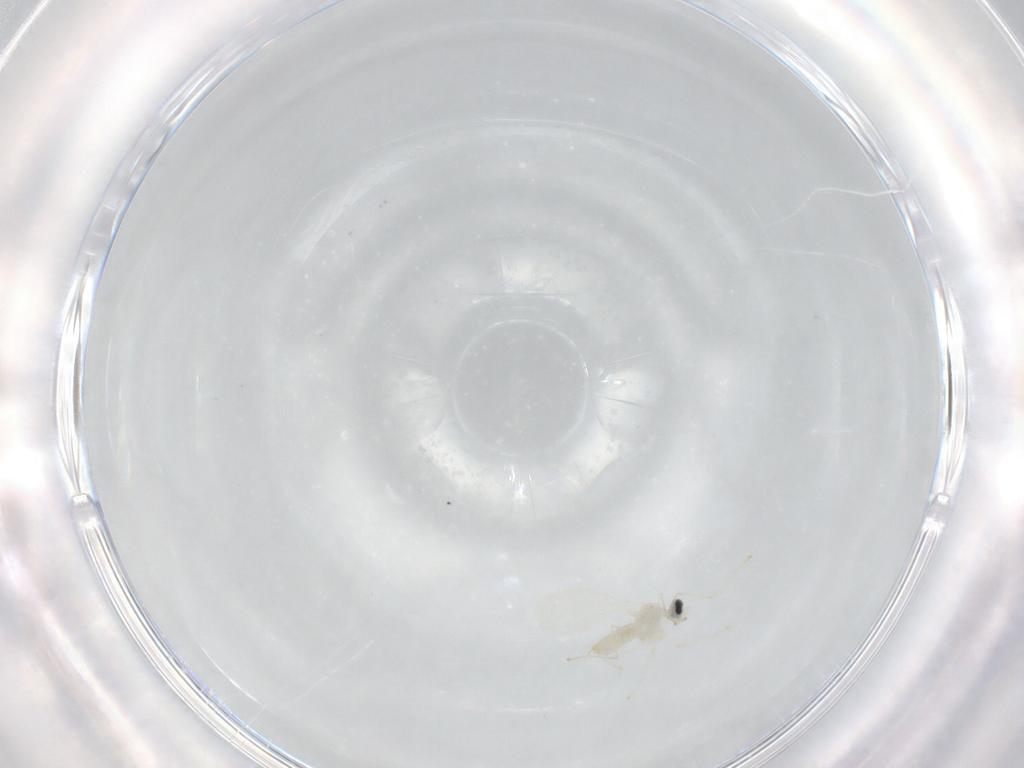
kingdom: Animalia
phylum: Arthropoda
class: Insecta
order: Diptera
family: Cecidomyiidae
